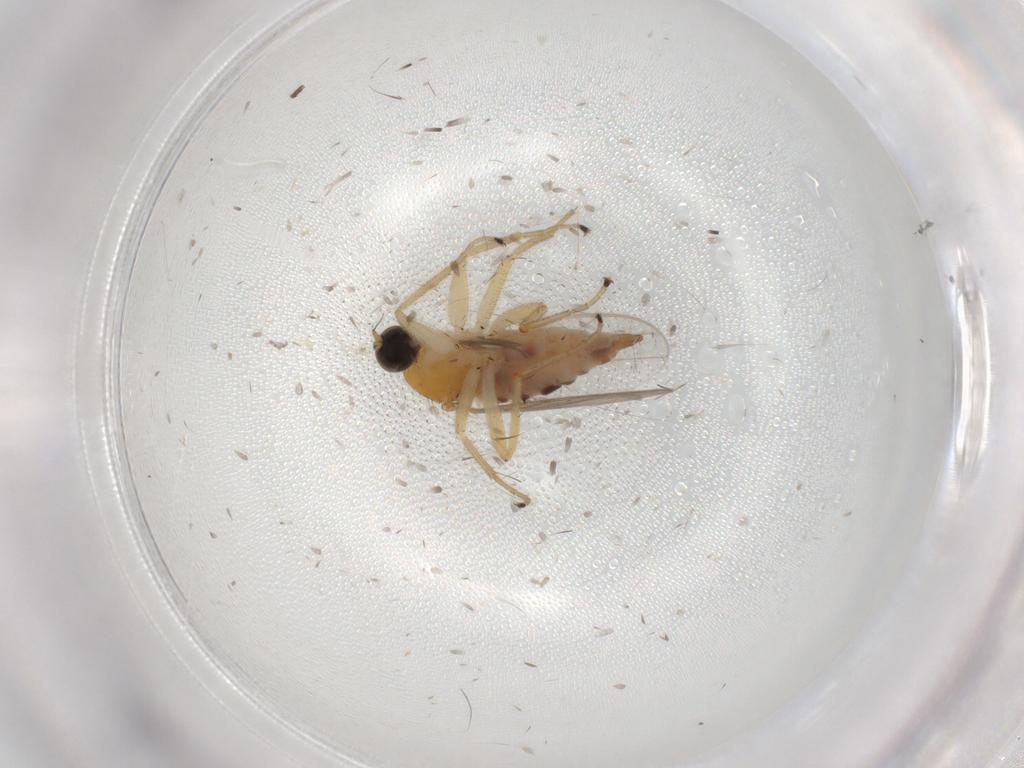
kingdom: Animalia
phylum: Arthropoda
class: Insecta
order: Diptera
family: Hybotidae
